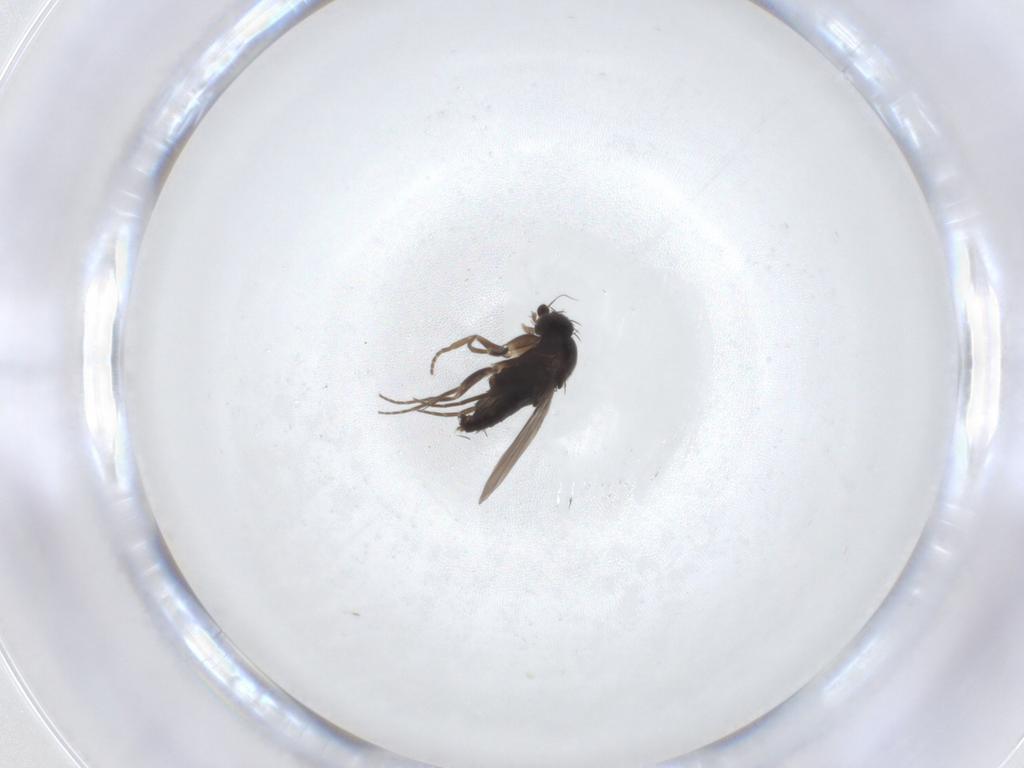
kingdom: Animalia
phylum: Arthropoda
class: Insecta
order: Diptera
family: Phoridae
